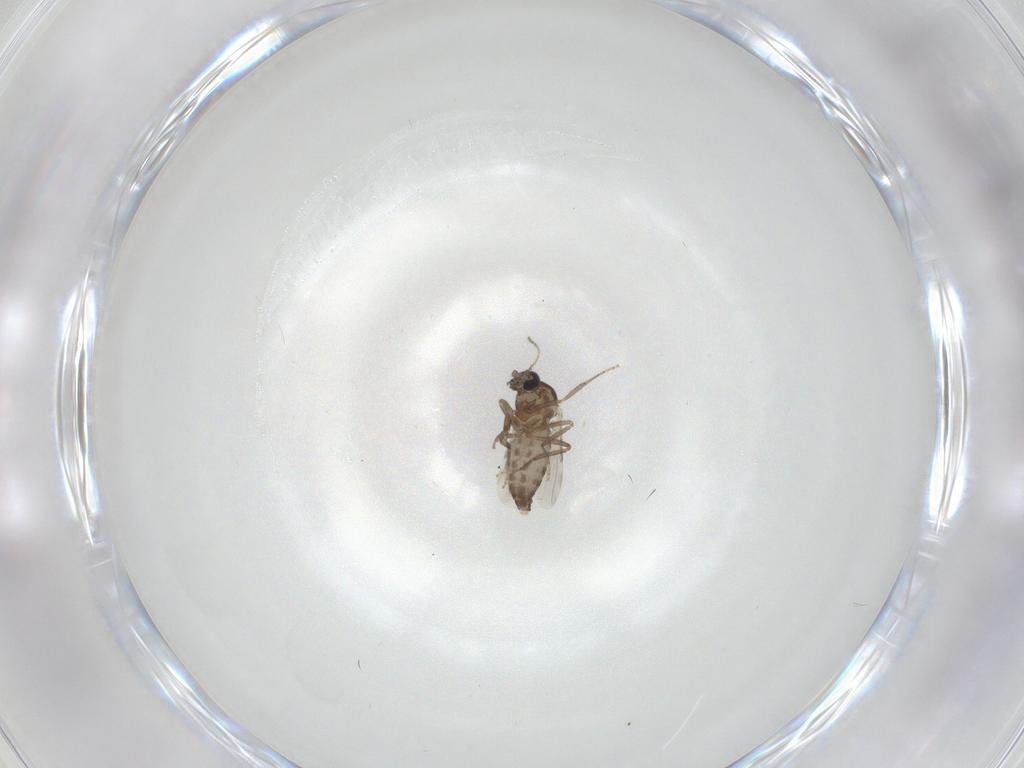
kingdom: Animalia
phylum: Arthropoda
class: Insecta
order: Diptera
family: Ceratopogonidae
